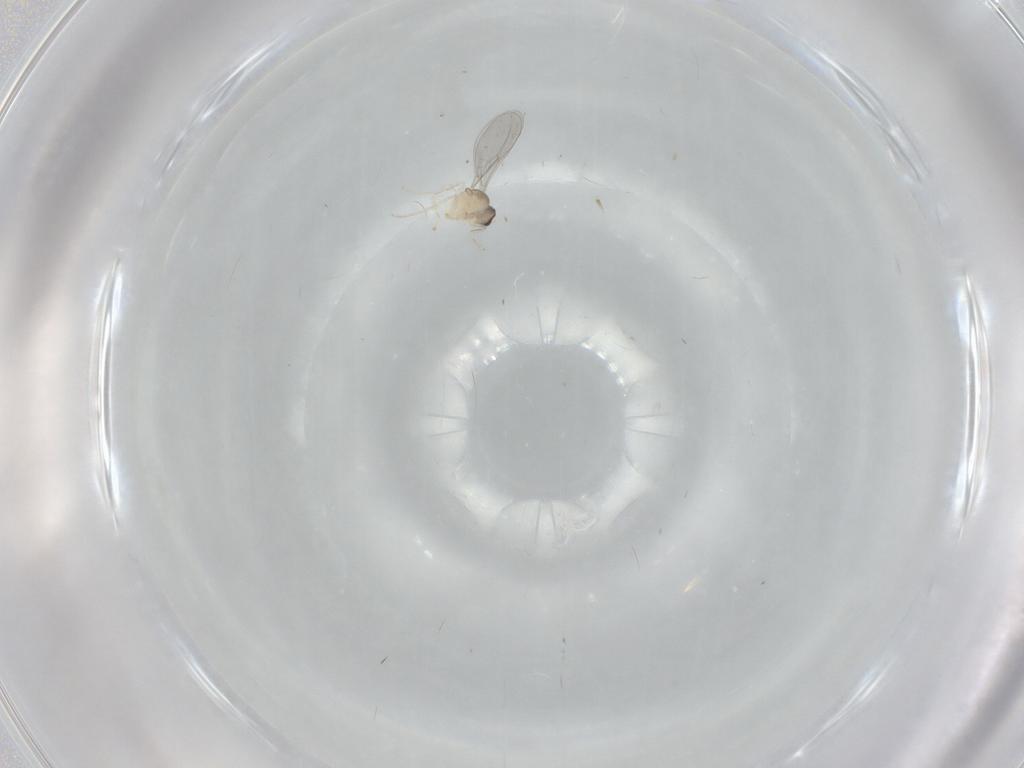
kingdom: Animalia
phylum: Arthropoda
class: Insecta
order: Diptera
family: Cecidomyiidae
